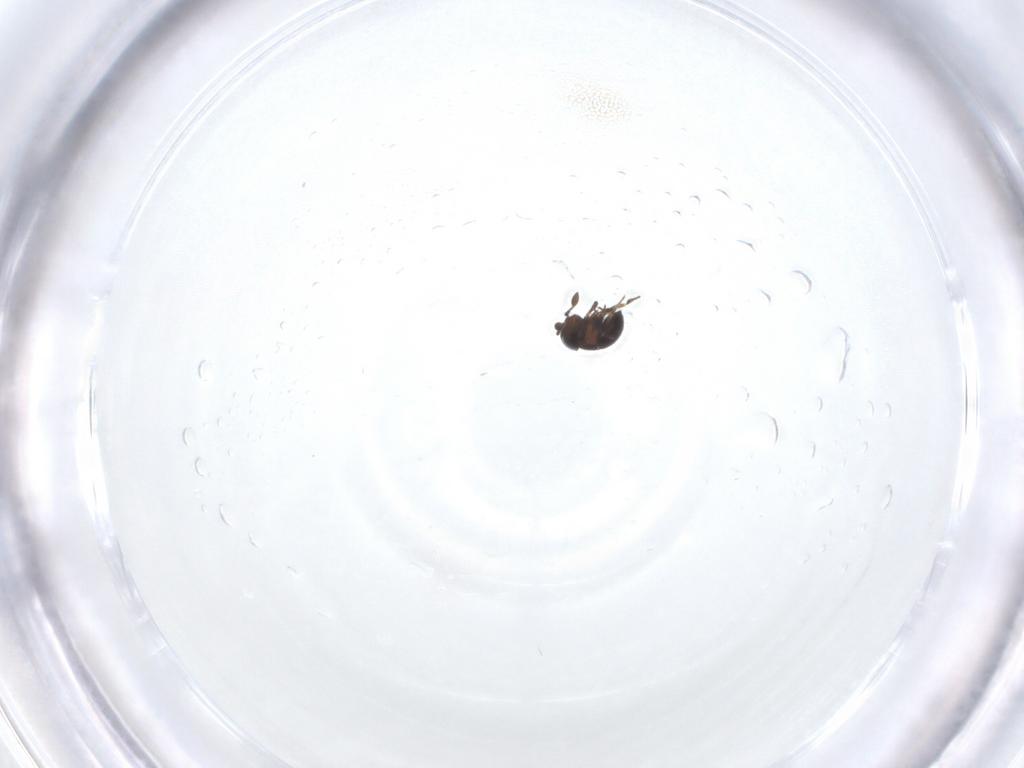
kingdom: Animalia
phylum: Arthropoda
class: Insecta
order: Hymenoptera
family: Scelionidae
